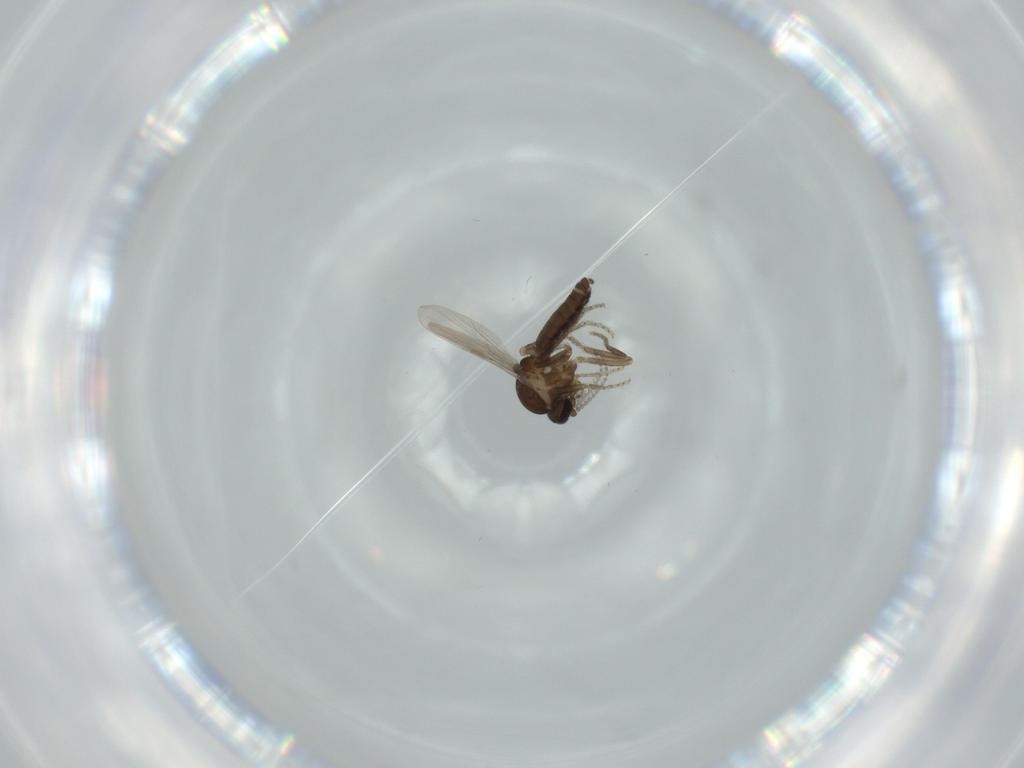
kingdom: Animalia
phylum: Arthropoda
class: Insecta
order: Diptera
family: Ceratopogonidae
